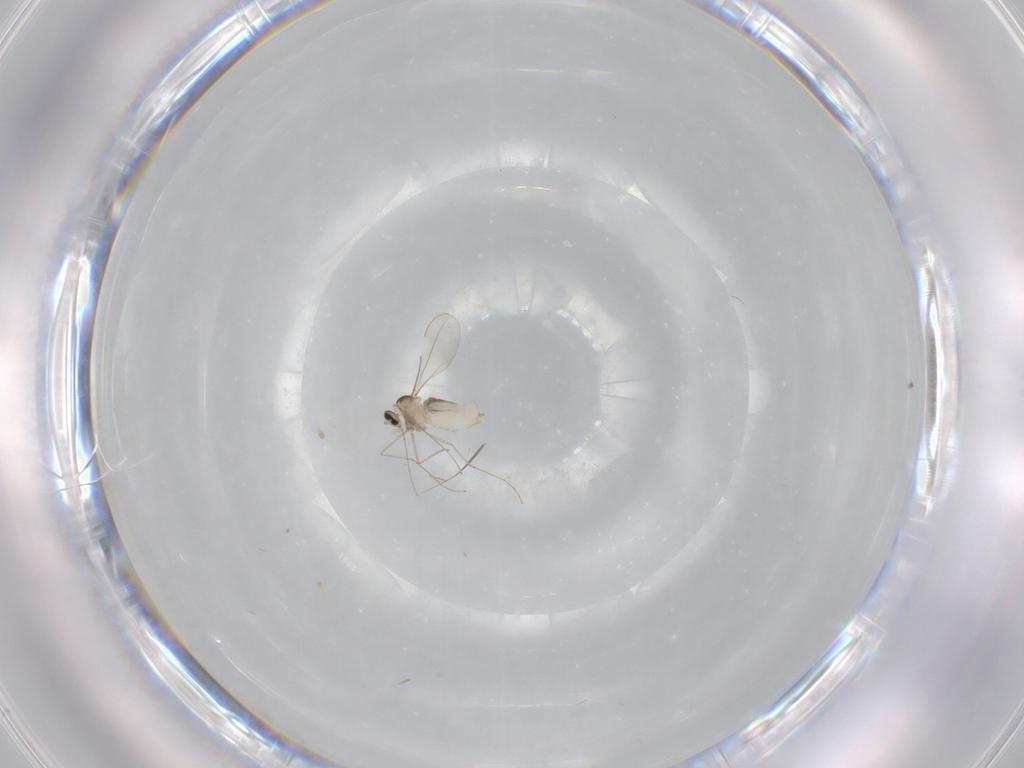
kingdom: Animalia
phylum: Arthropoda
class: Insecta
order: Diptera
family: Cecidomyiidae
